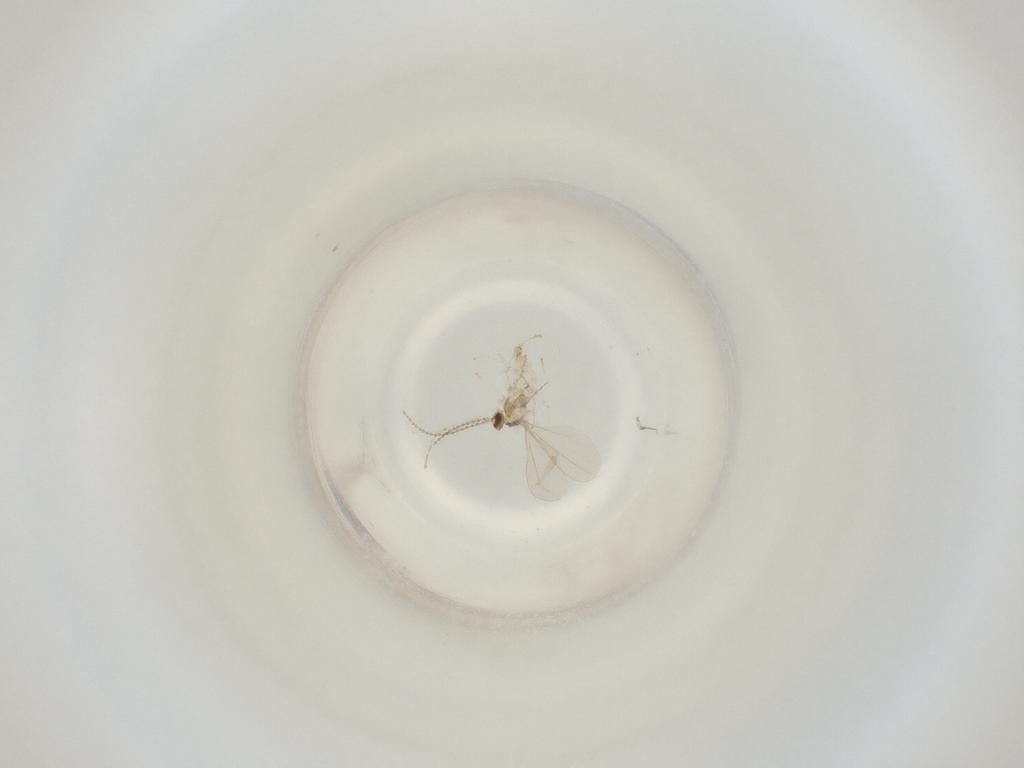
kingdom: Animalia
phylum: Arthropoda
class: Insecta
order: Diptera
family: Cecidomyiidae
